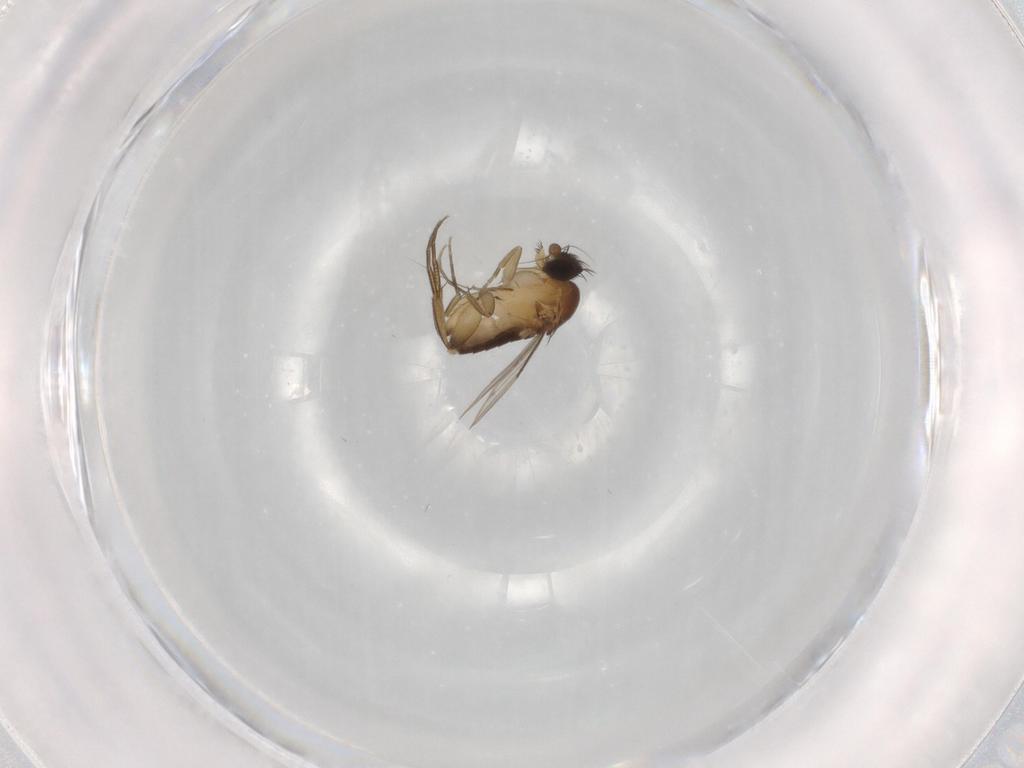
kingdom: Animalia
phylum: Arthropoda
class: Insecta
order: Diptera
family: Phoridae
